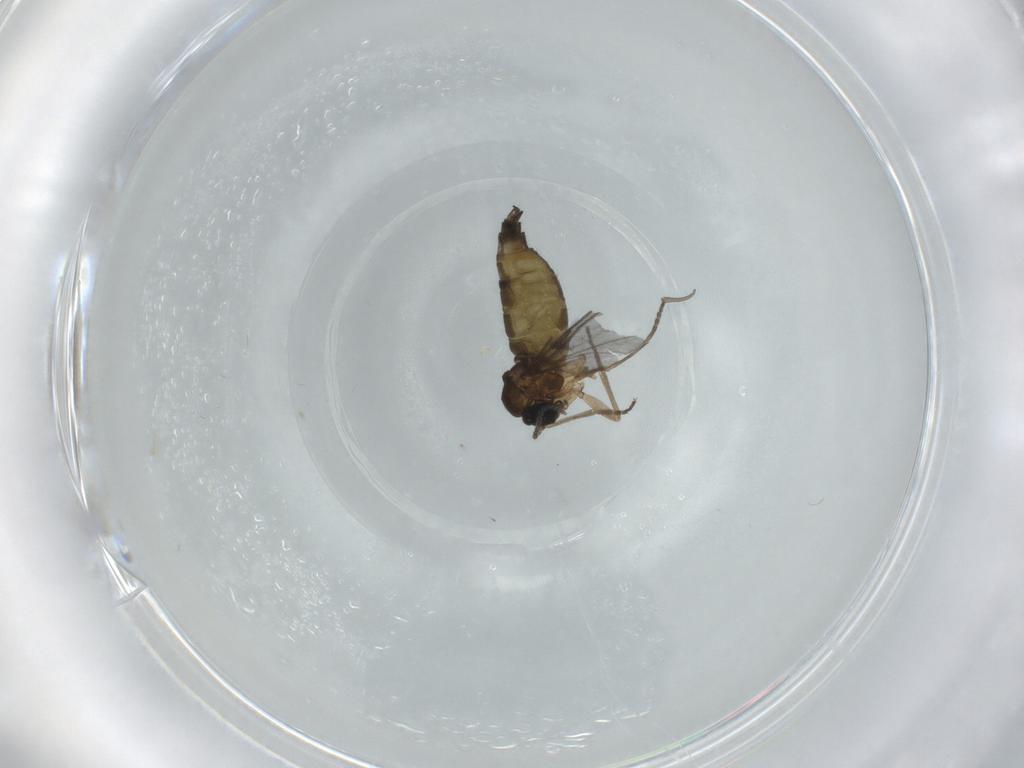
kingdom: Animalia
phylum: Arthropoda
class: Insecta
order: Diptera
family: Sciaridae
